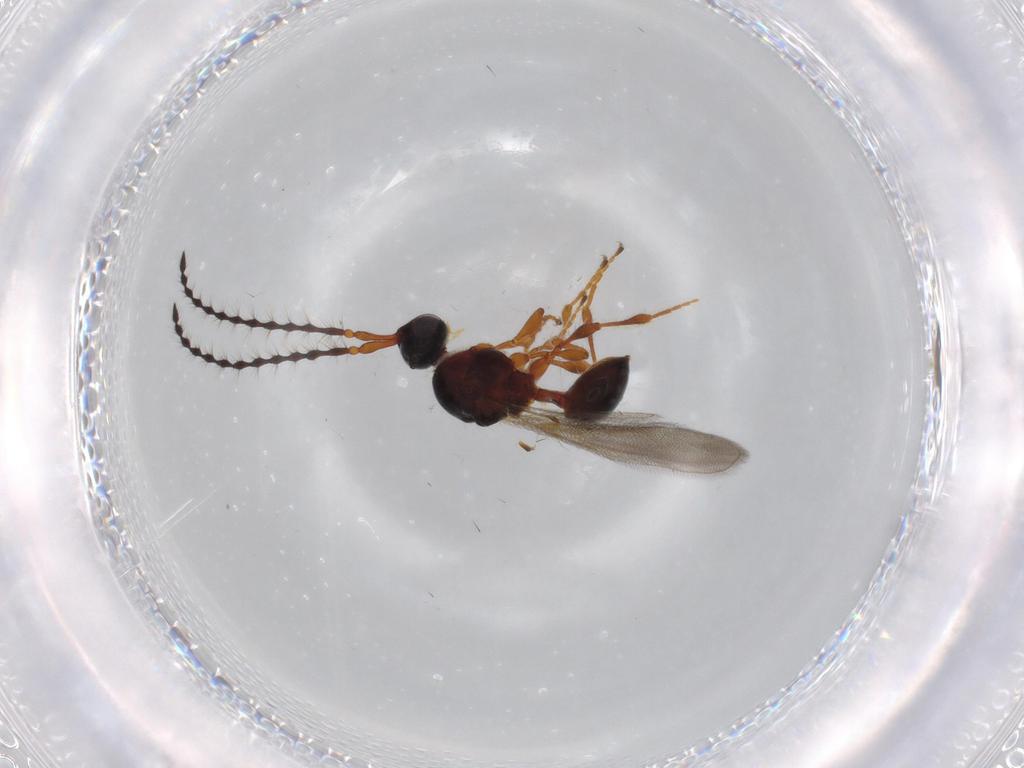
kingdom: Animalia
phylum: Arthropoda
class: Insecta
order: Hymenoptera
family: Diapriidae
